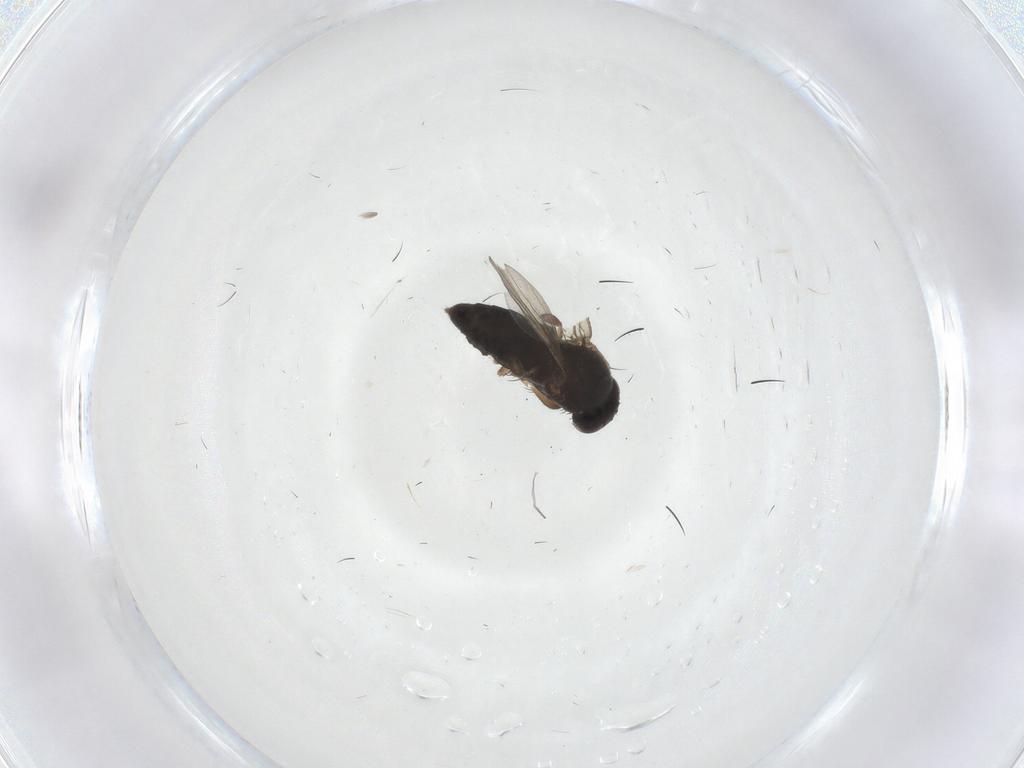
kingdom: Animalia
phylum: Arthropoda
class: Insecta
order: Diptera
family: Phoridae
